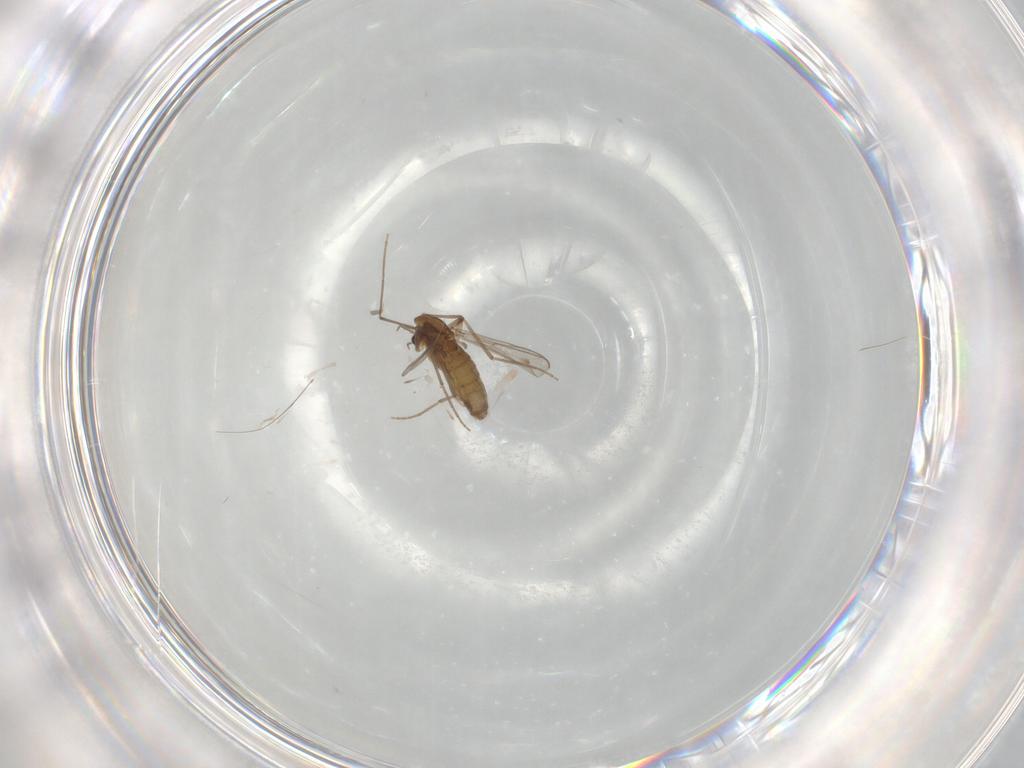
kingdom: Animalia
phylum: Arthropoda
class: Insecta
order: Diptera
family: Chironomidae
